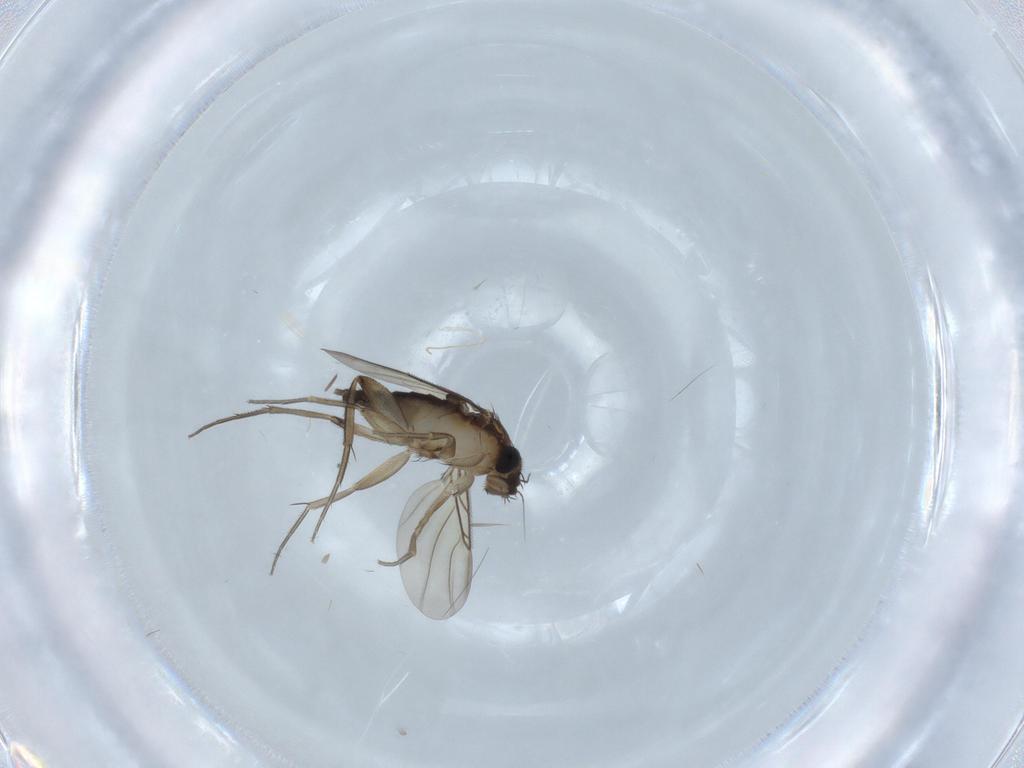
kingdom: Animalia
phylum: Arthropoda
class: Insecta
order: Diptera
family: Phoridae
